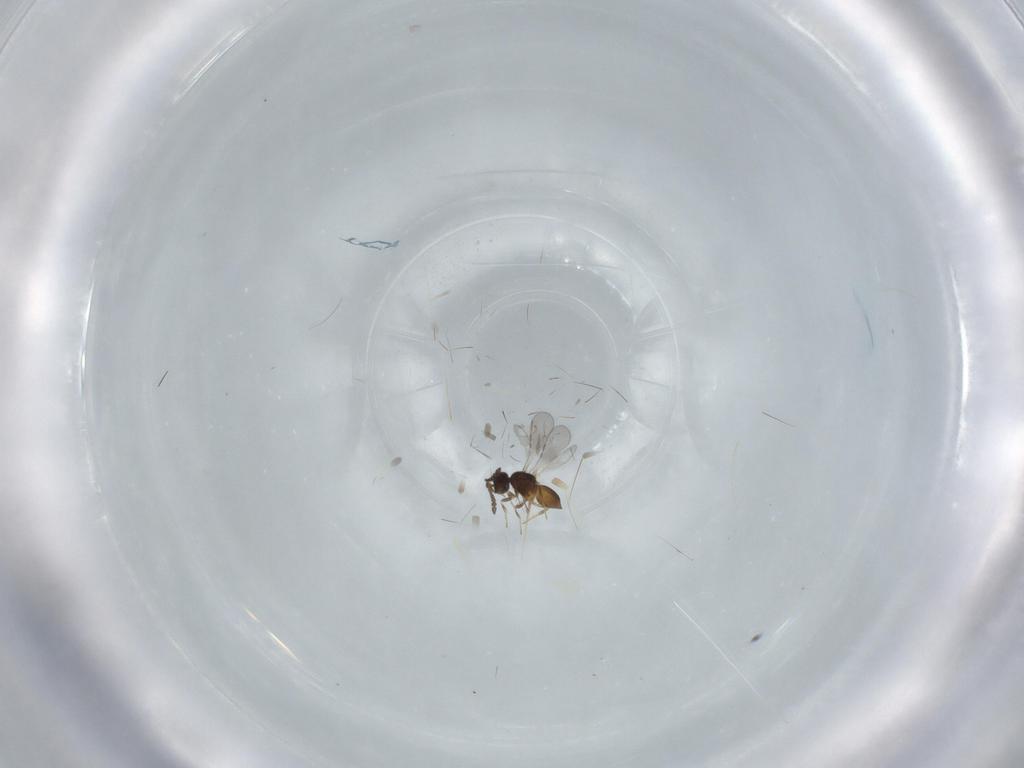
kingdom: Animalia
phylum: Arthropoda
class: Insecta
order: Hymenoptera
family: Ceraphronidae
